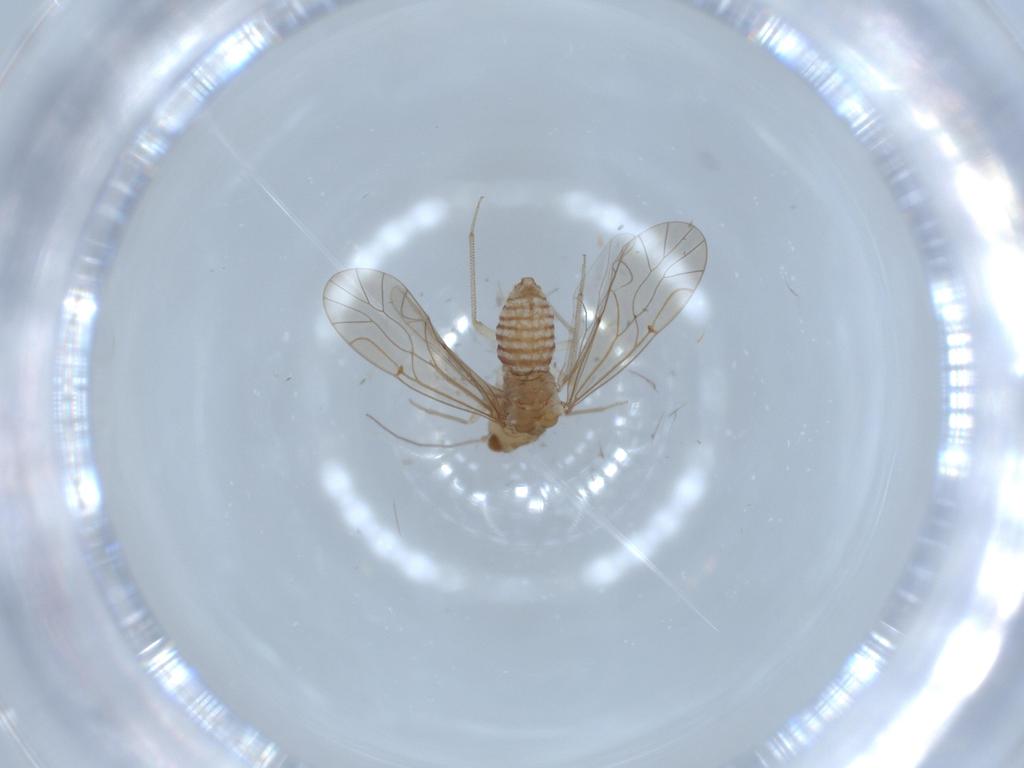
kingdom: Animalia
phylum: Arthropoda
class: Insecta
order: Psocodea
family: Lachesillidae
